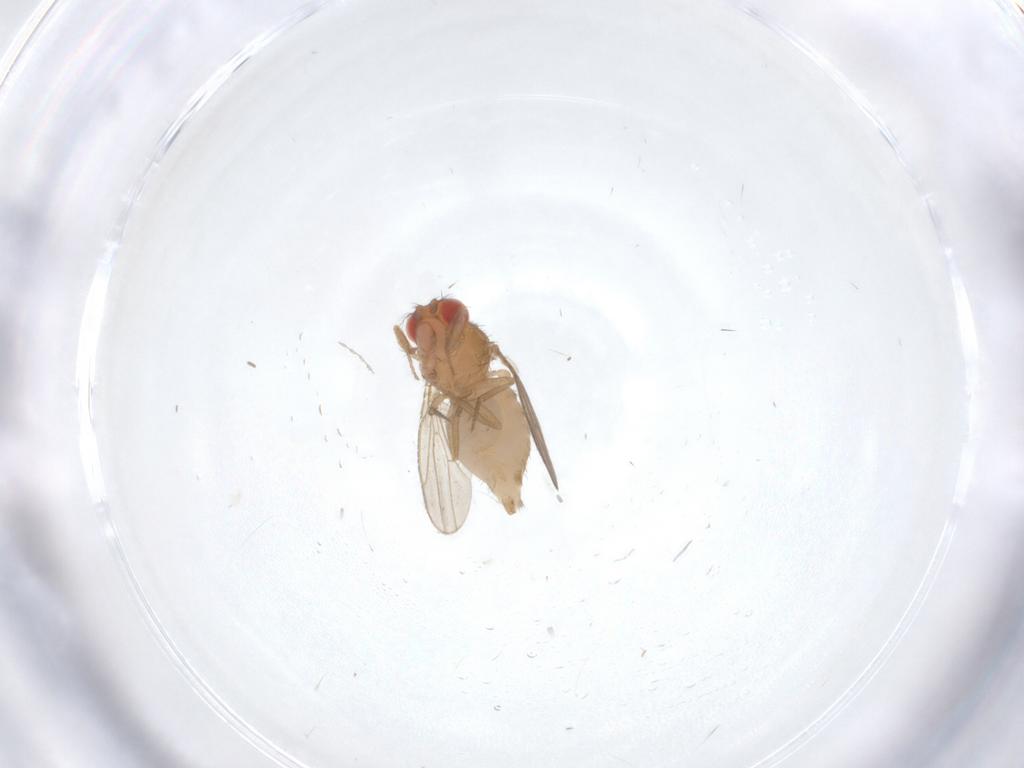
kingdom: Animalia
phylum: Arthropoda
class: Insecta
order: Diptera
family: Drosophilidae
